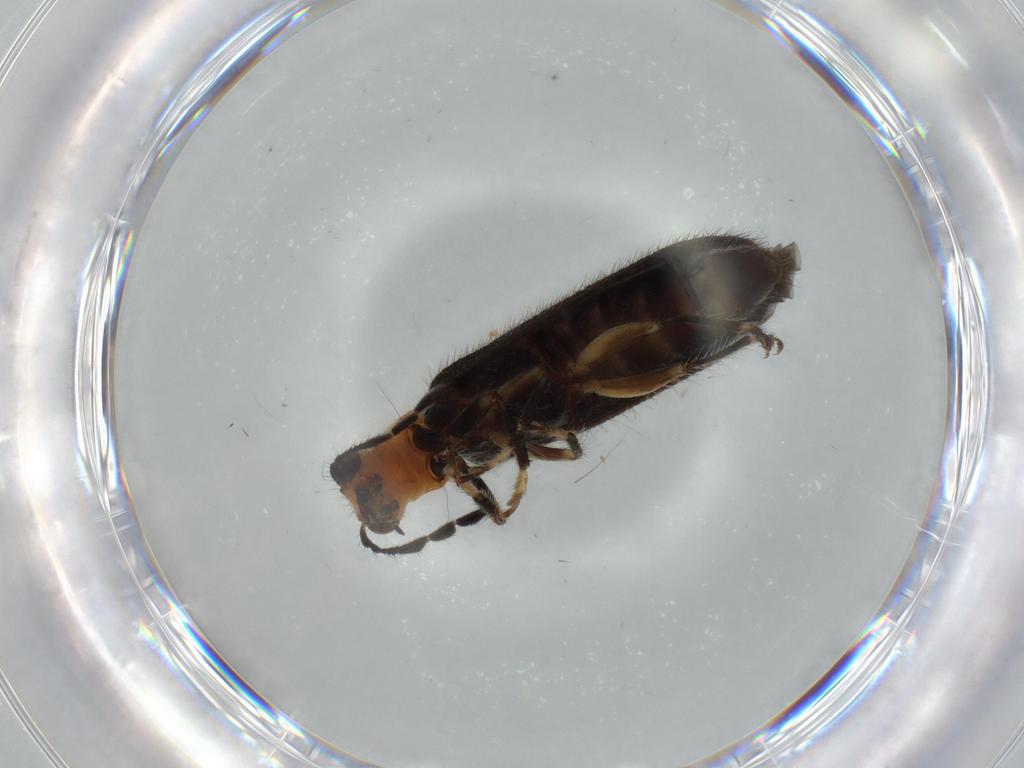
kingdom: Animalia
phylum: Arthropoda
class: Insecta
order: Coleoptera
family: Cleridae
